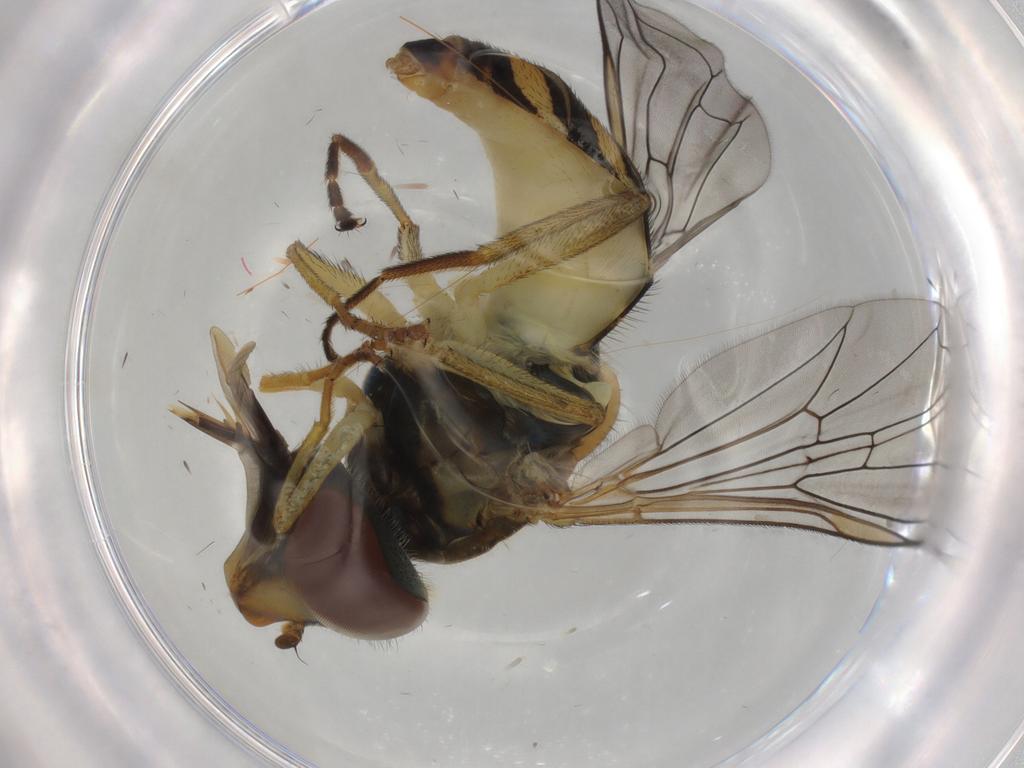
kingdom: Animalia
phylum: Arthropoda
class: Insecta
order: Diptera
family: Syrphidae
